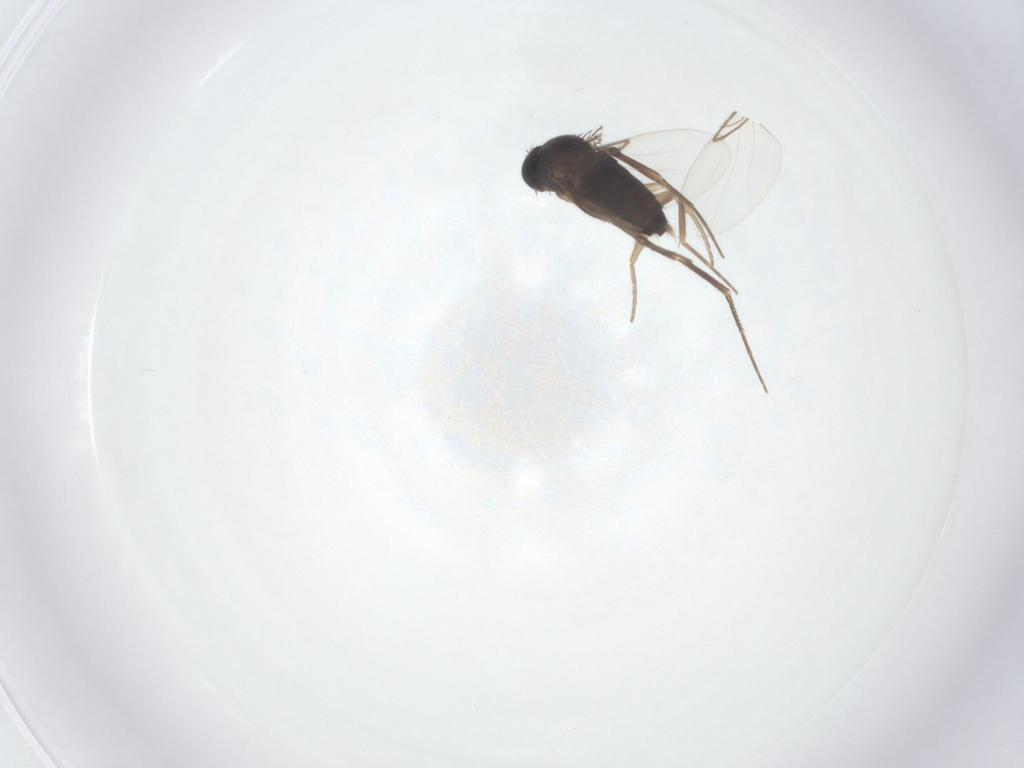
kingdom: Animalia
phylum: Arthropoda
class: Insecta
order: Diptera
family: Phoridae
